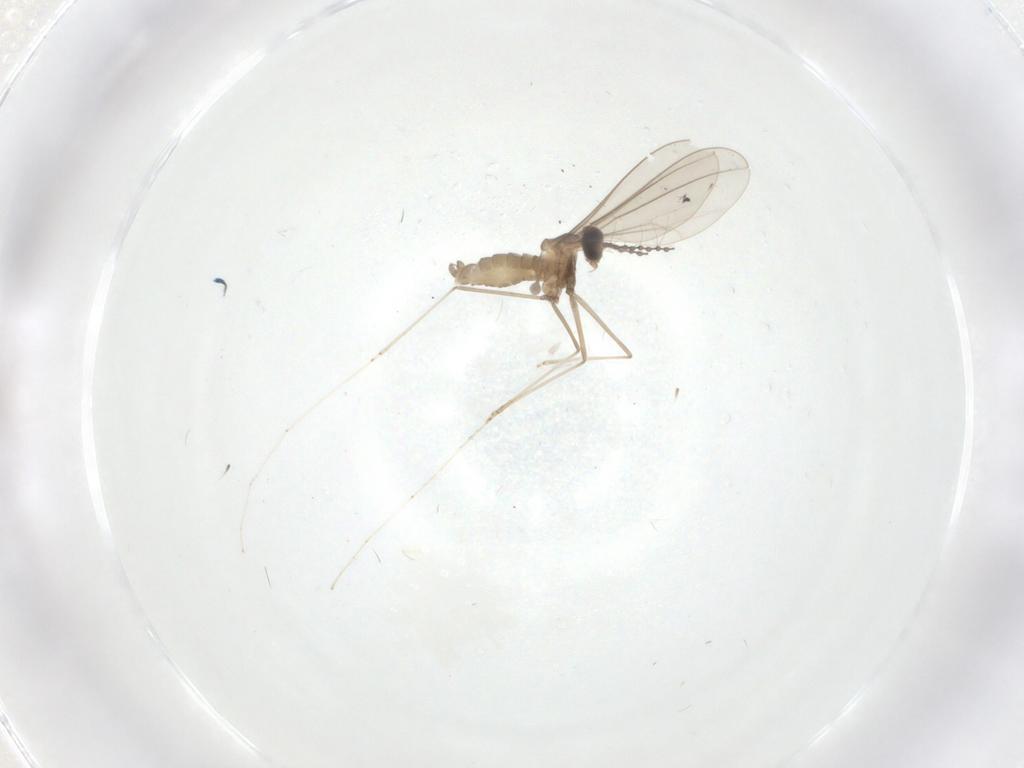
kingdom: Animalia
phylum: Arthropoda
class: Insecta
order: Diptera
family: Cecidomyiidae
